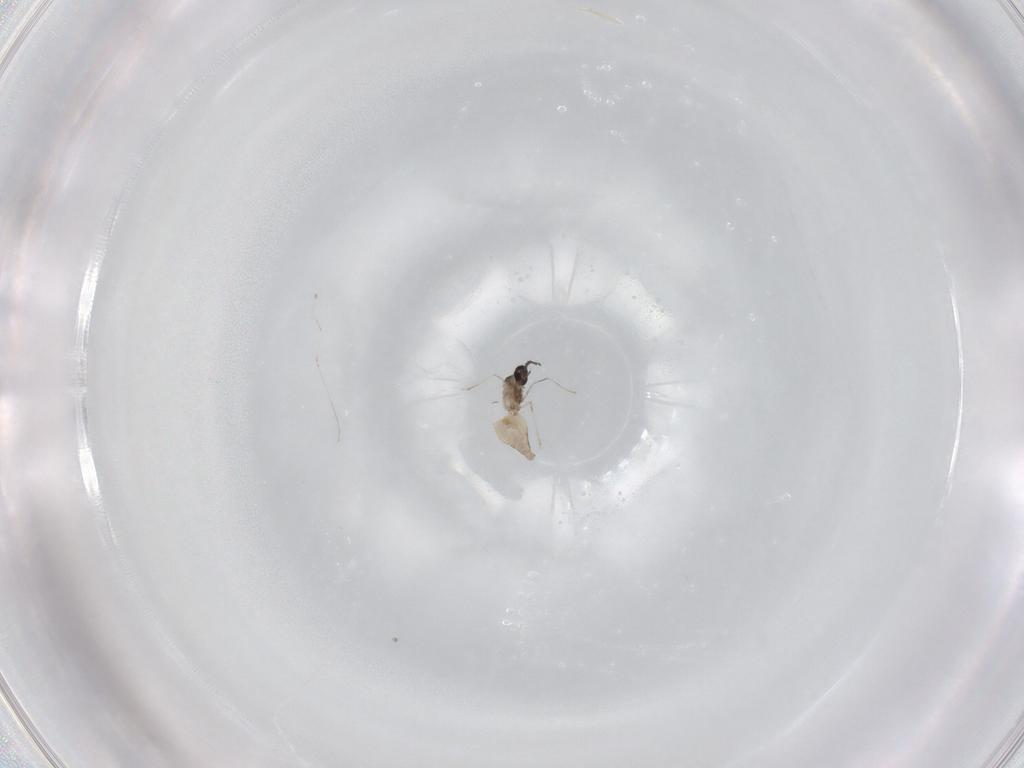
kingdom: Animalia
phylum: Arthropoda
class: Insecta
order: Diptera
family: Cecidomyiidae
